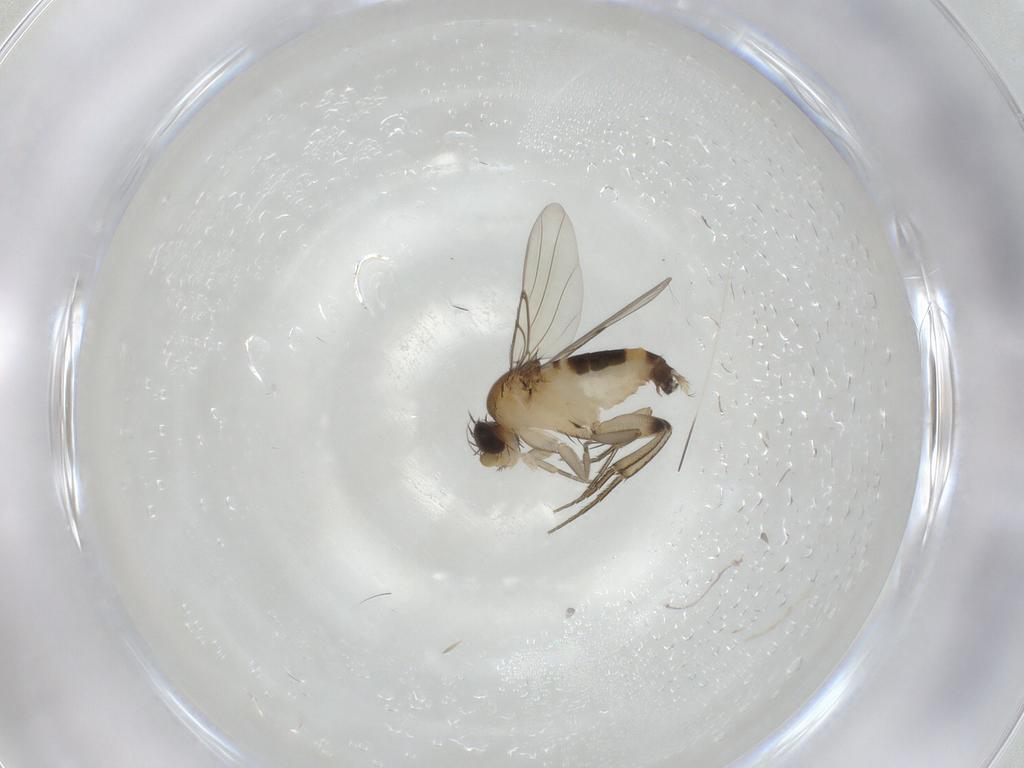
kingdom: Animalia
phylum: Arthropoda
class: Insecta
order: Diptera
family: Phoridae
